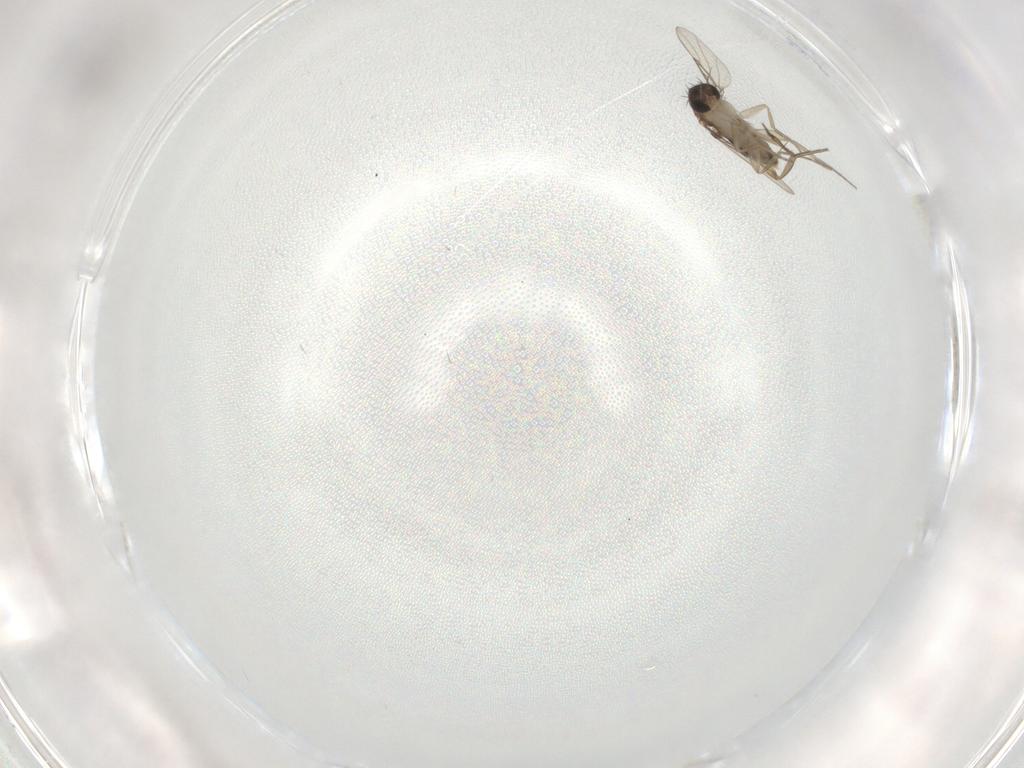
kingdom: Animalia
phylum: Arthropoda
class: Insecta
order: Diptera
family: Phoridae
